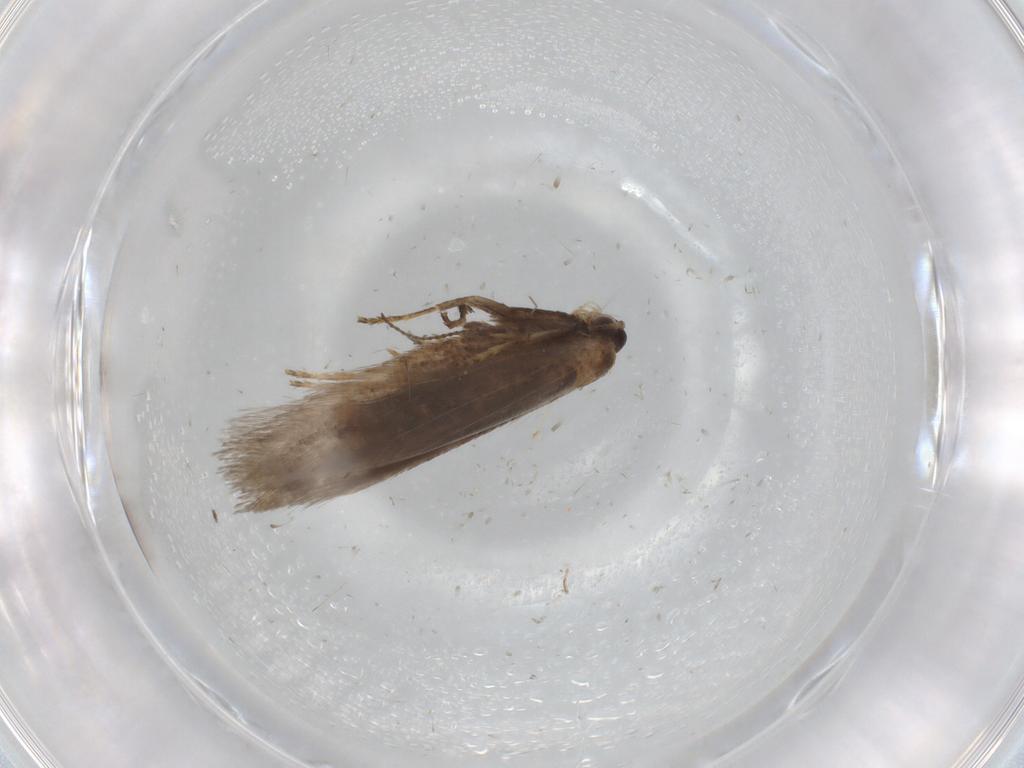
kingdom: Animalia
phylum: Arthropoda
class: Insecta
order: Lepidoptera
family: Nepticulidae
